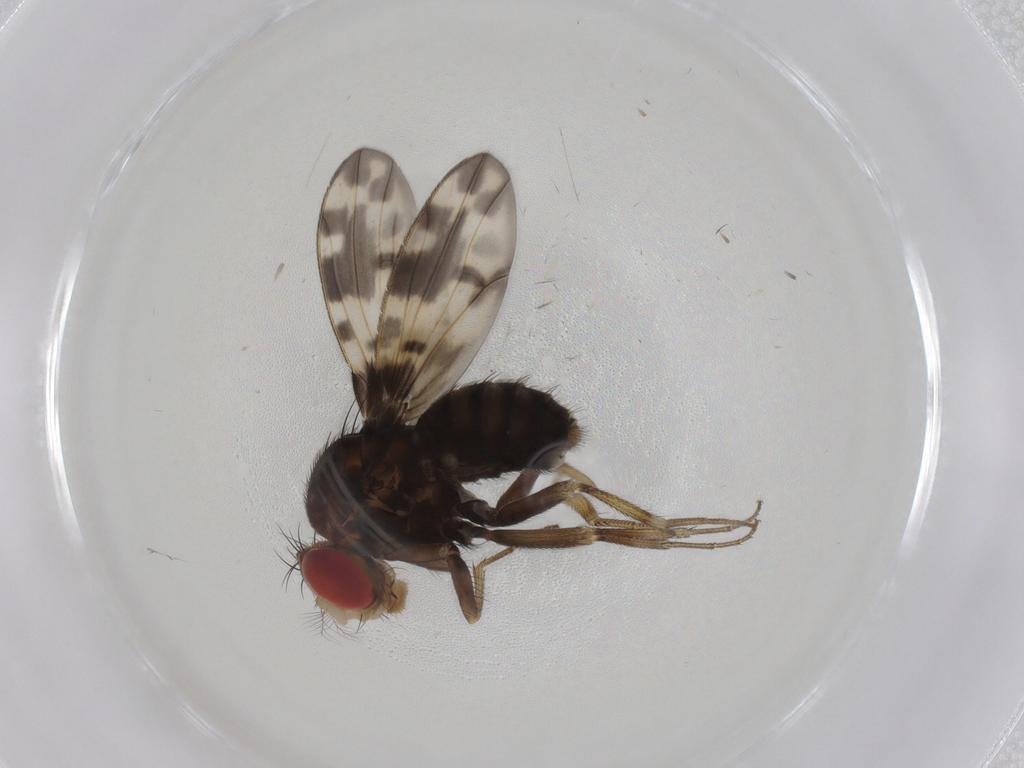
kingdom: Animalia
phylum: Arthropoda
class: Insecta
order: Diptera
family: Drosophilidae
